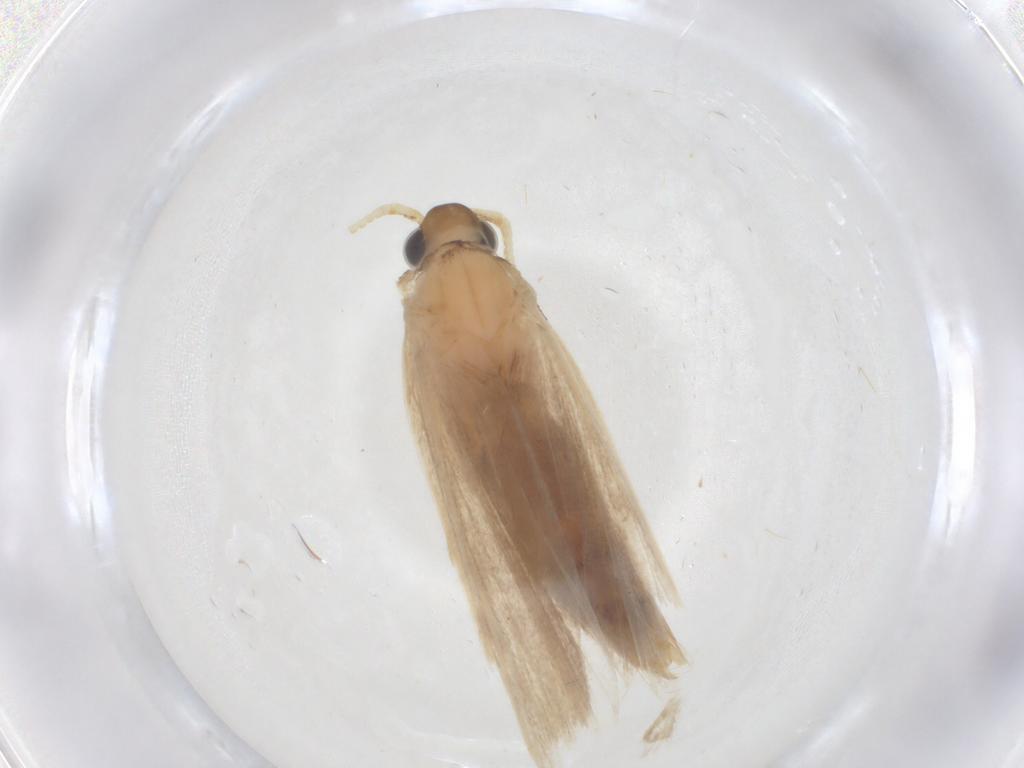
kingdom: Animalia
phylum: Arthropoda
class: Insecta
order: Lepidoptera
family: Lecithoceridae
